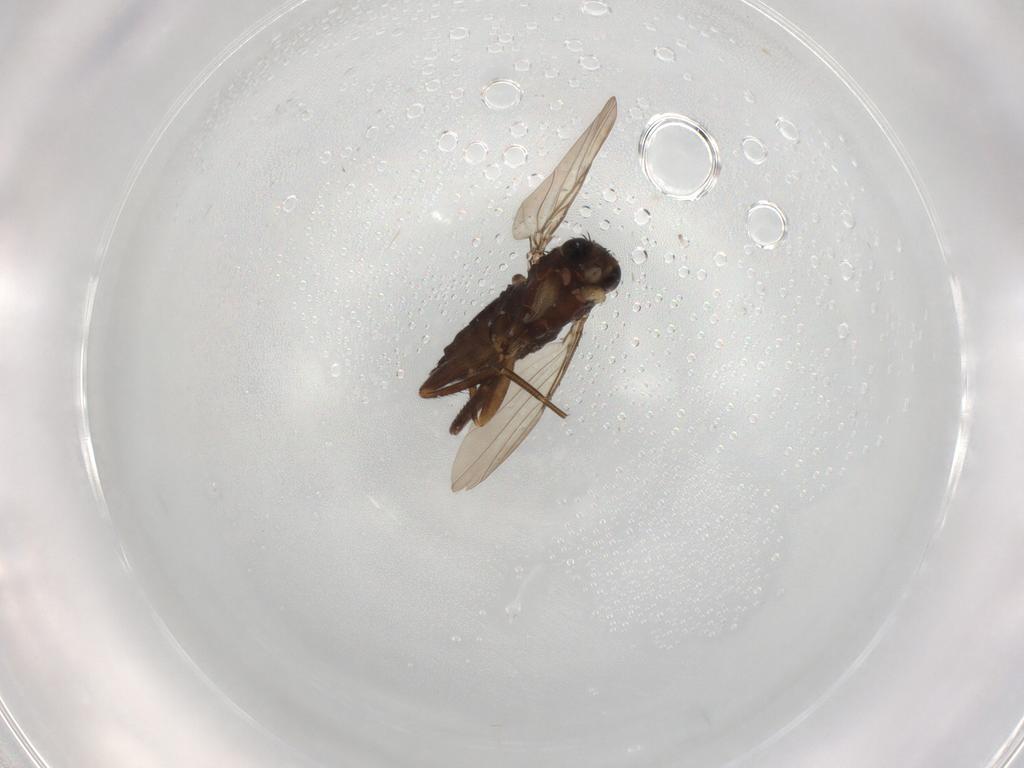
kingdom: Animalia
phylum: Arthropoda
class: Insecta
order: Diptera
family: Phoridae
